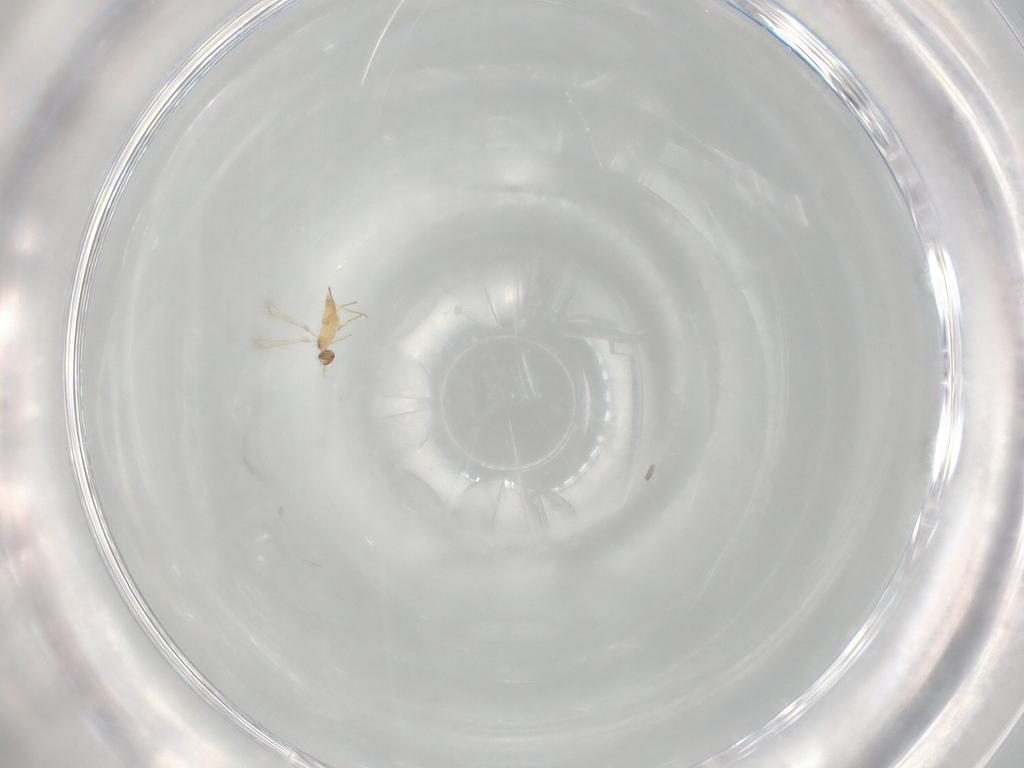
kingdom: Animalia
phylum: Arthropoda
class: Insecta
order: Hymenoptera
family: Mymaridae
